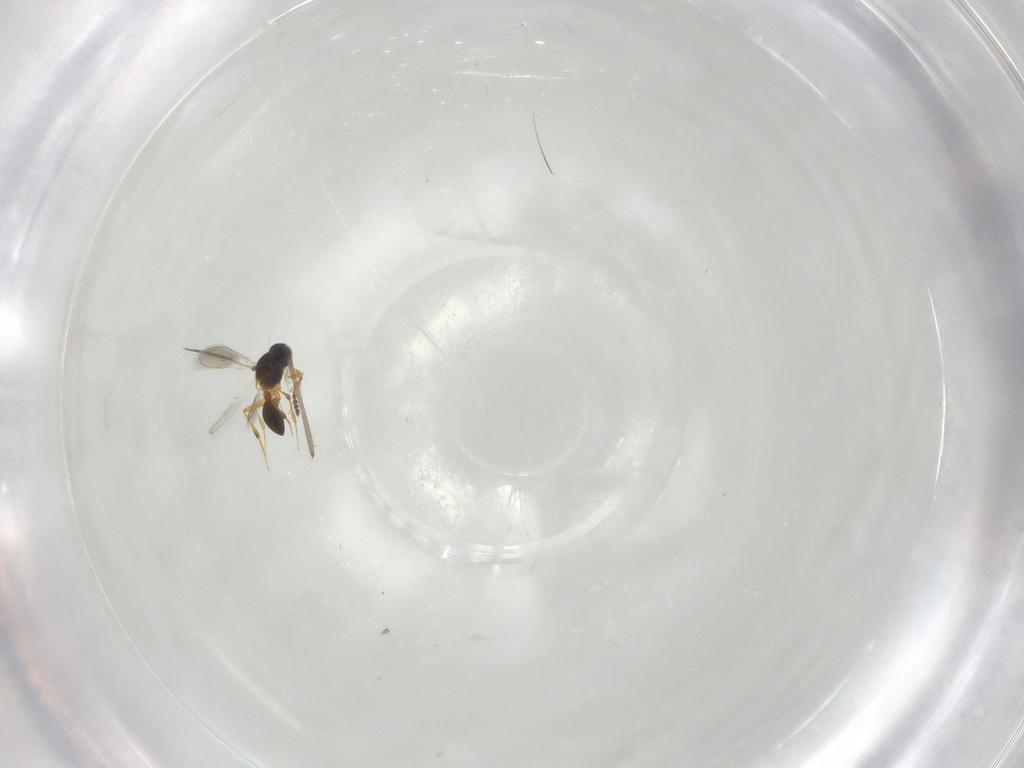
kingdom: Animalia
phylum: Arthropoda
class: Insecta
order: Hymenoptera
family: Platygastridae
